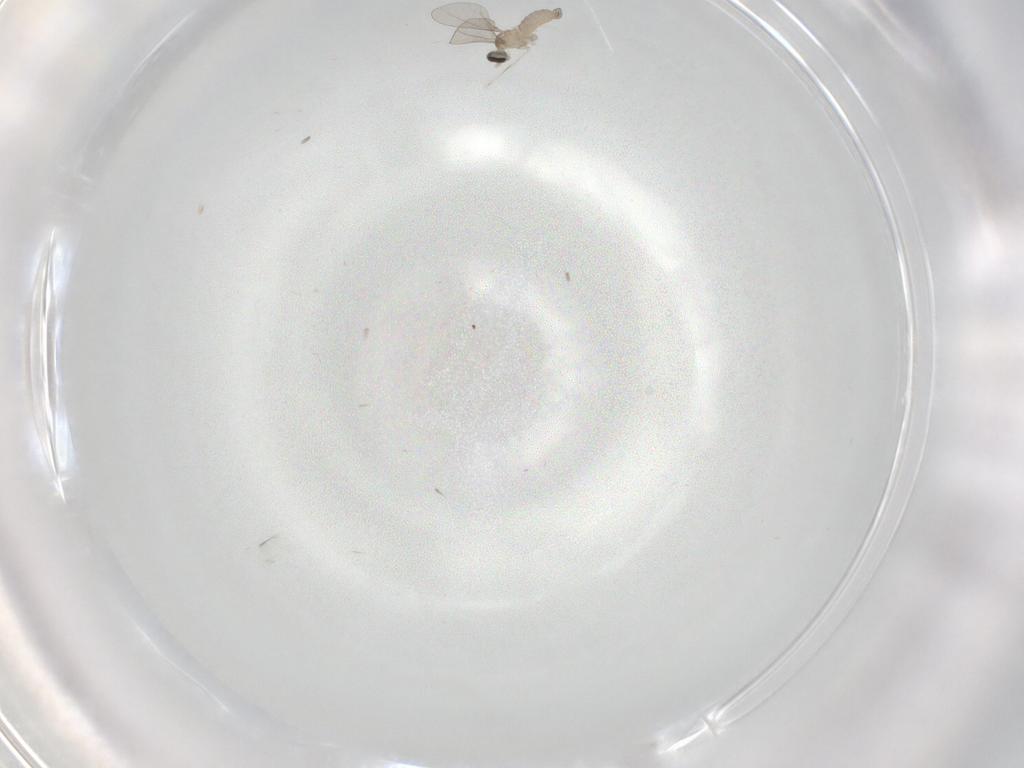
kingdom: Animalia
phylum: Arthropoda
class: Insecta
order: Diptera
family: Cecidomyiidae
